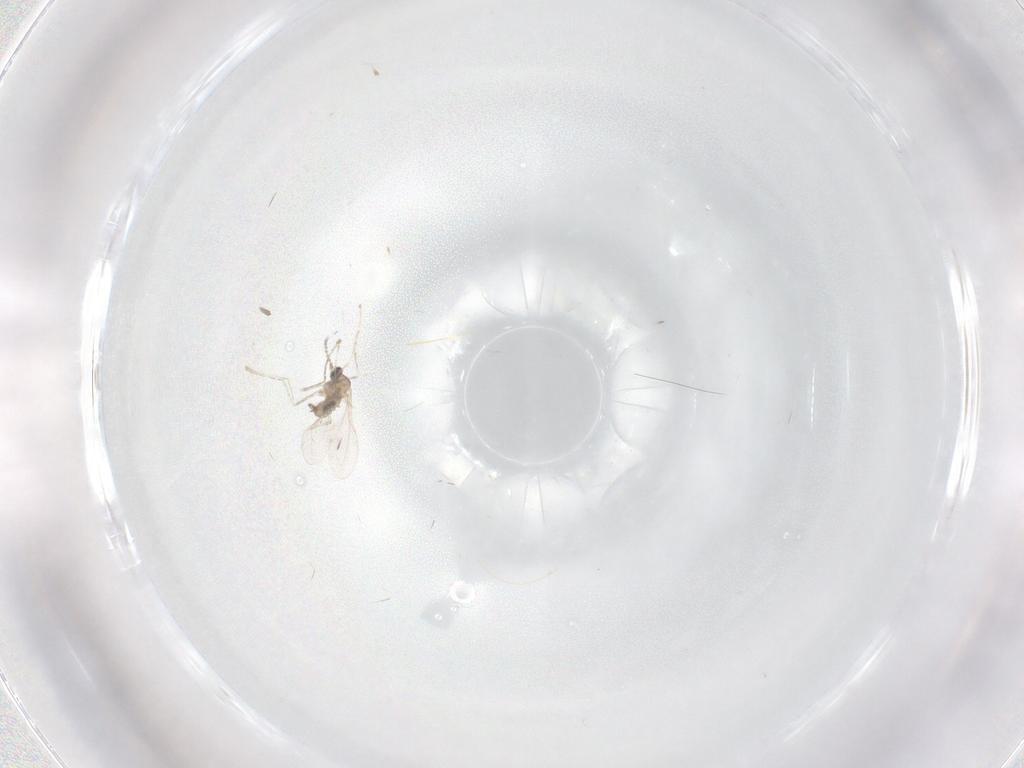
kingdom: Animalia
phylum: Arthropoda
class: Insecta
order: Diptera
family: Cecidomyiidae
